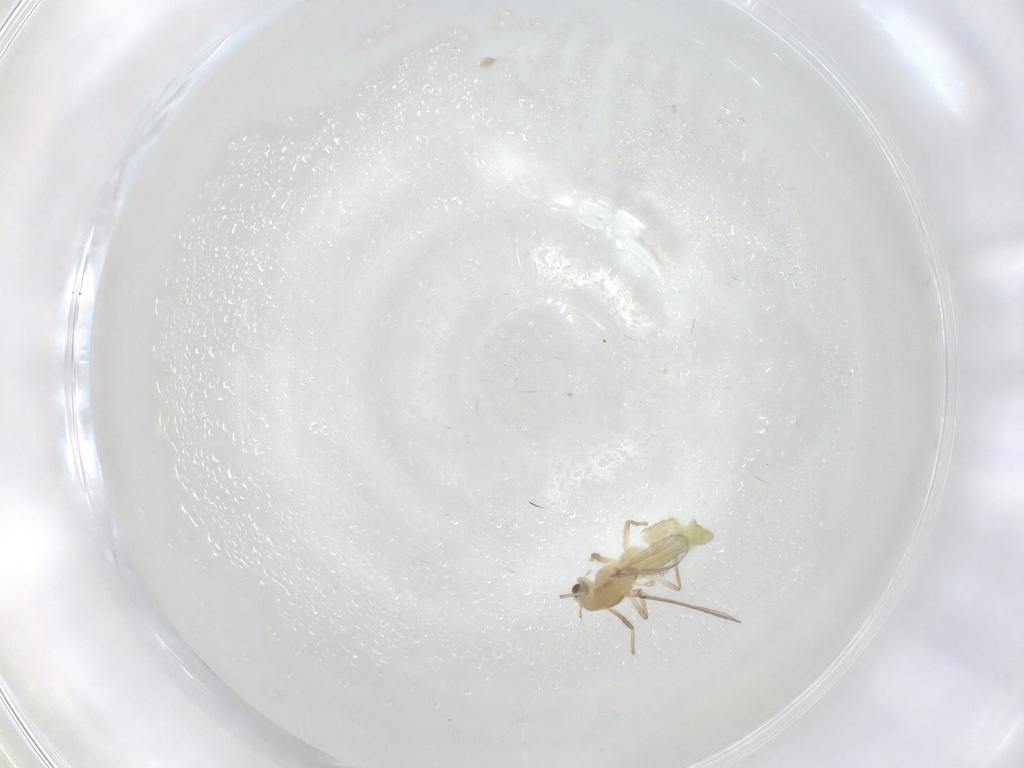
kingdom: Animalia
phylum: Arthropoda
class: Insecta
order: Diptera
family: Chironomidae
